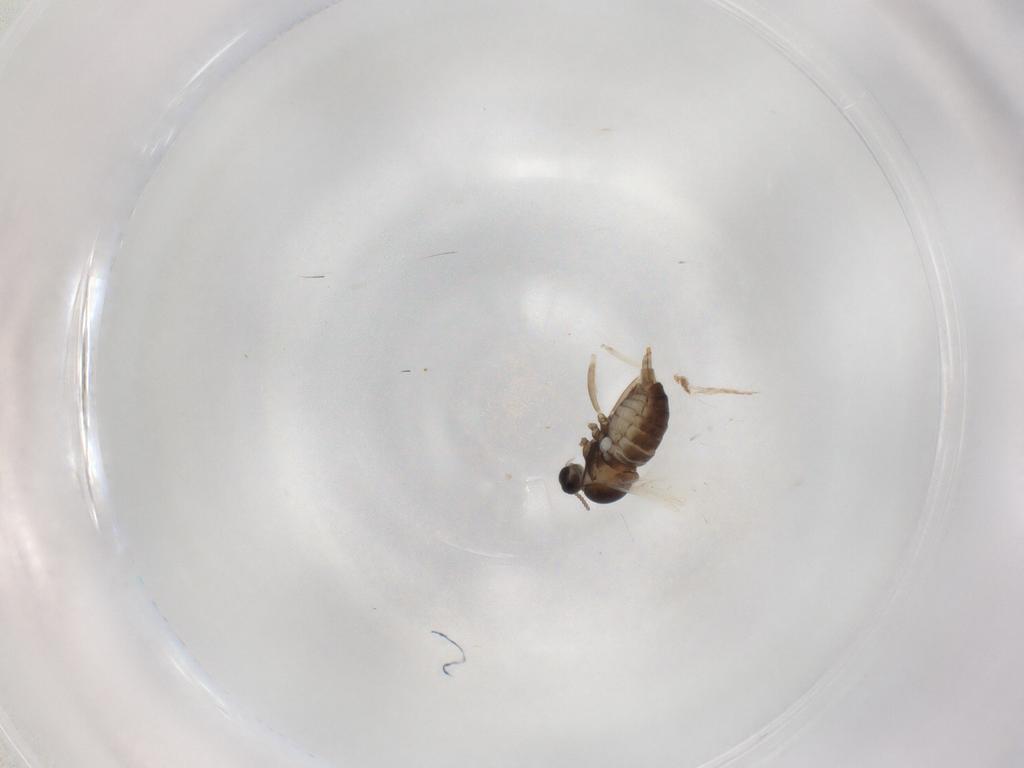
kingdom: Animalia
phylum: Arthropoda
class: Insecta
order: Diptera
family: Cecidomyiidae
